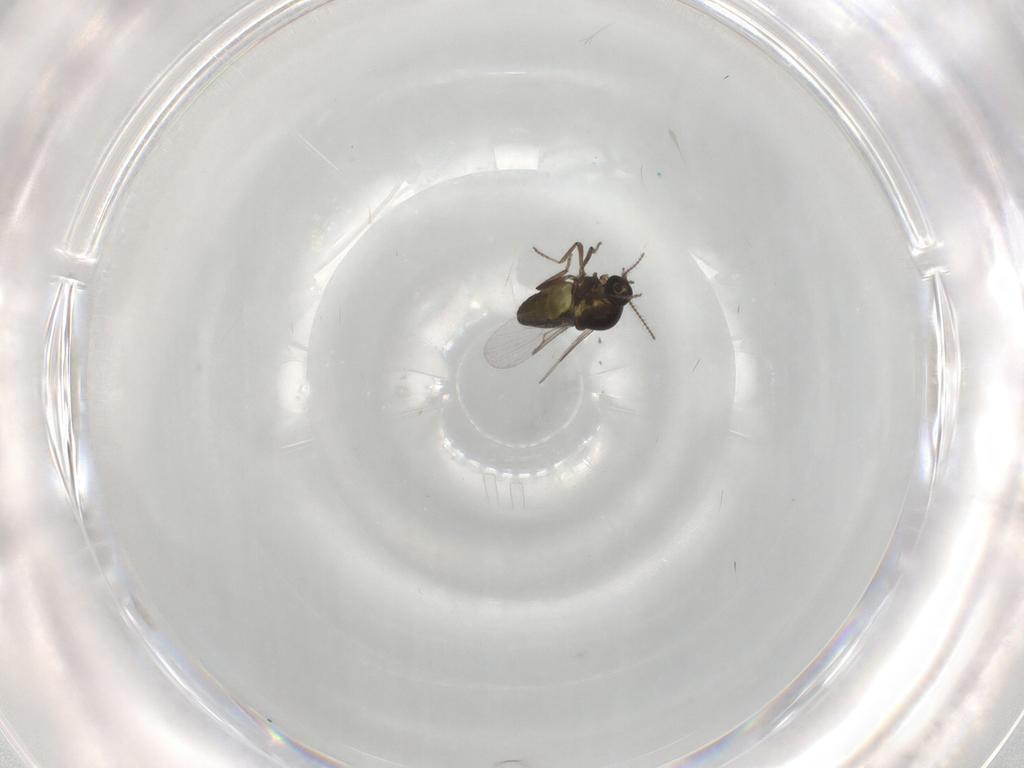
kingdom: Animalia
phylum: Arthropoda
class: Insecta
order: Diptera
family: Ceratopogonidae
